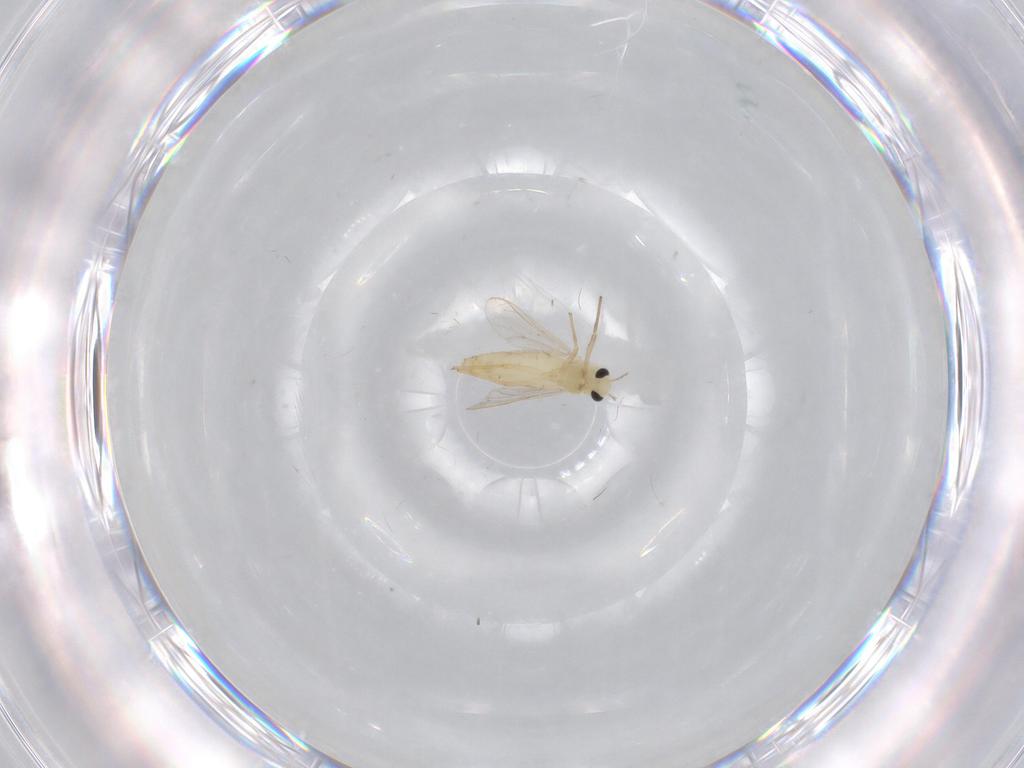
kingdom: Animalia
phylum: Arthropoda
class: Insecta
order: Diptera
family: Chironomidae
